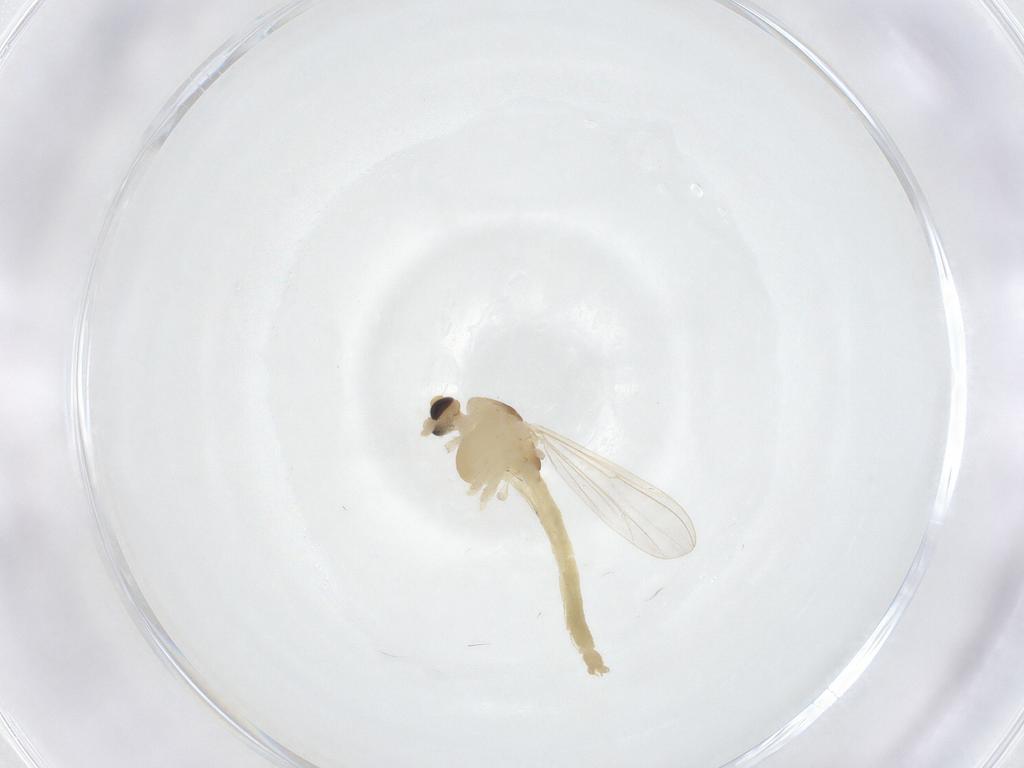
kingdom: Animalia
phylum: Arthropoda
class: Insecta
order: Diptera
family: Chironomidae
